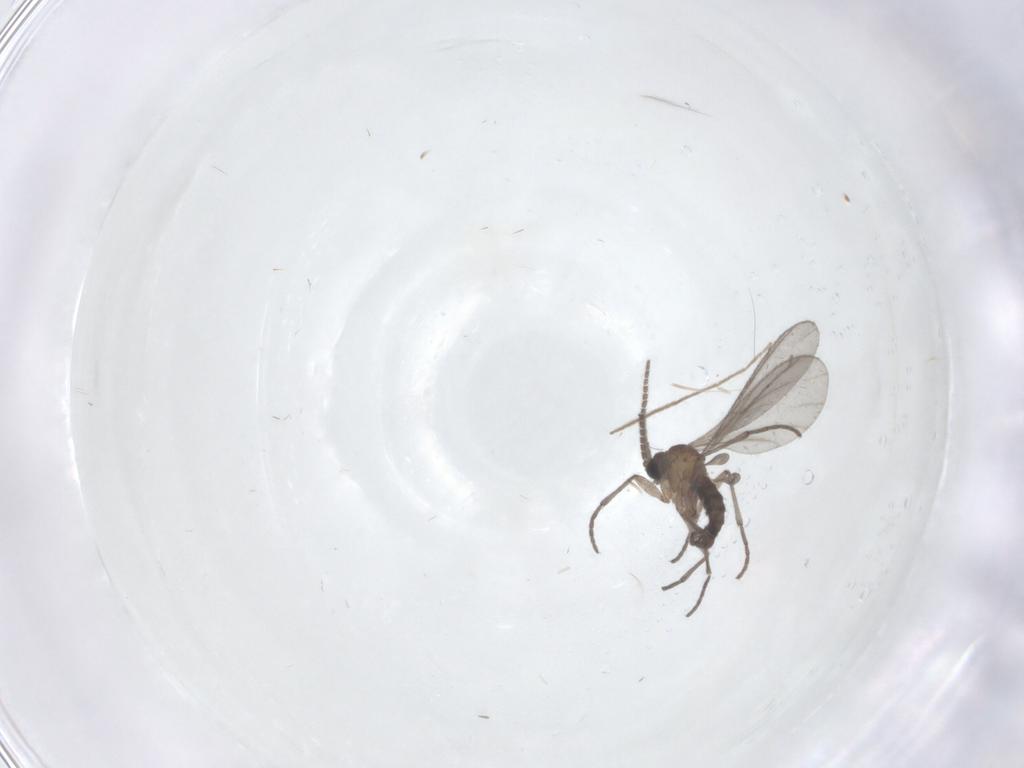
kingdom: Animalia
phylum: Arthropoda
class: Insecta
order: Diptera
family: Sciaridae
